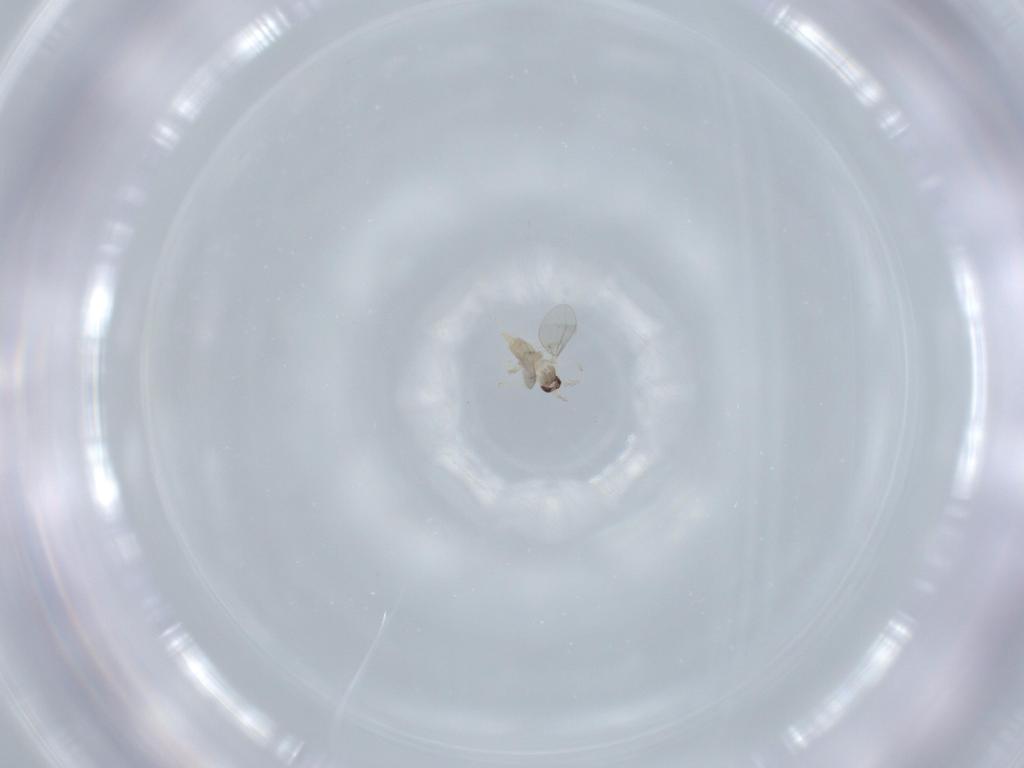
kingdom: Animalia
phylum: Arthropoda
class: Insecta
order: Diptera
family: Cecidomyiidae
